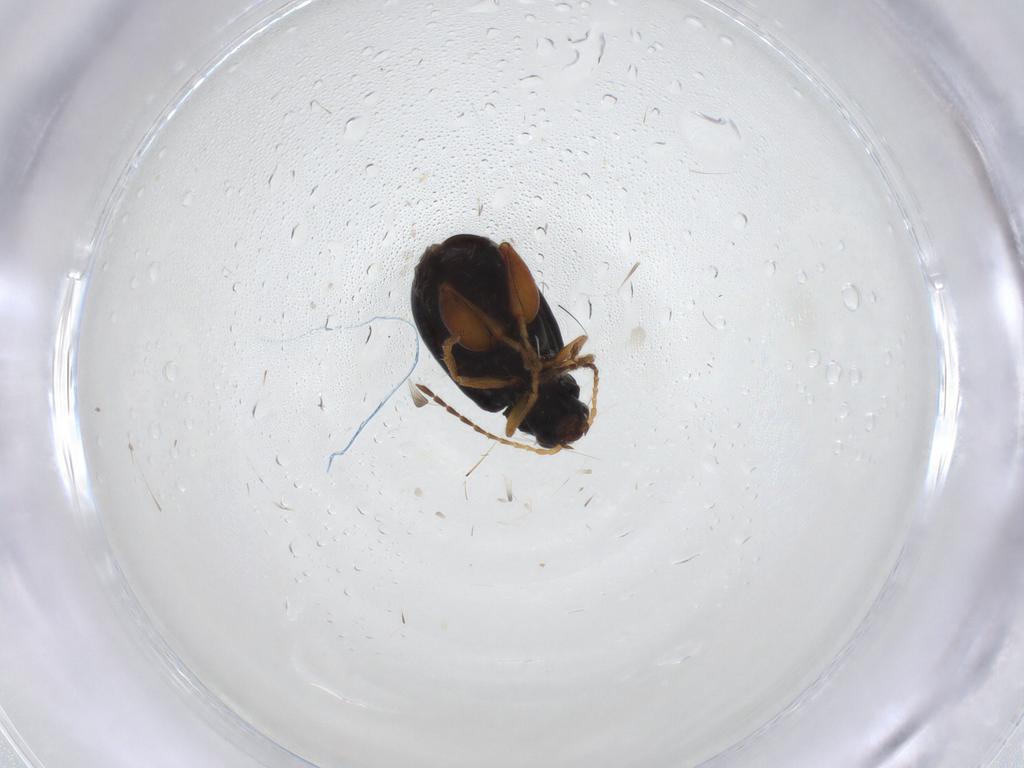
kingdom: Animalia
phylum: Arthropoda
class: Insecta
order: Coleoptera
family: Chrysomelidae
